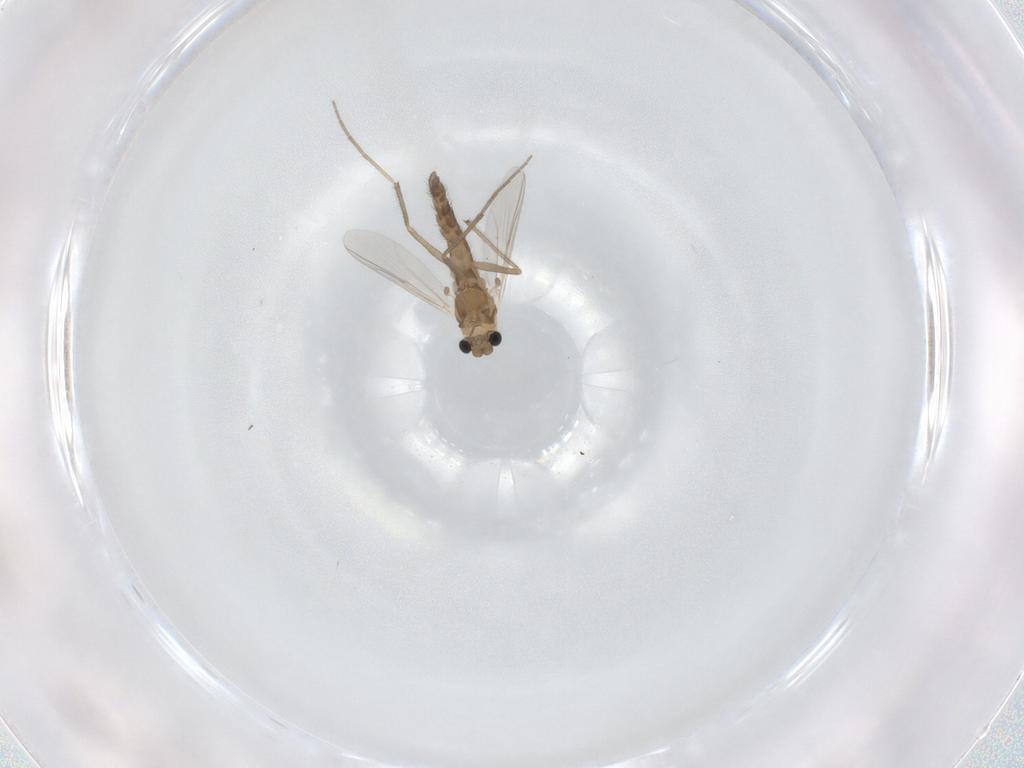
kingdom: Animalia
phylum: Arthropoda
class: Insecta
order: Diptera
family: Chironomidae
